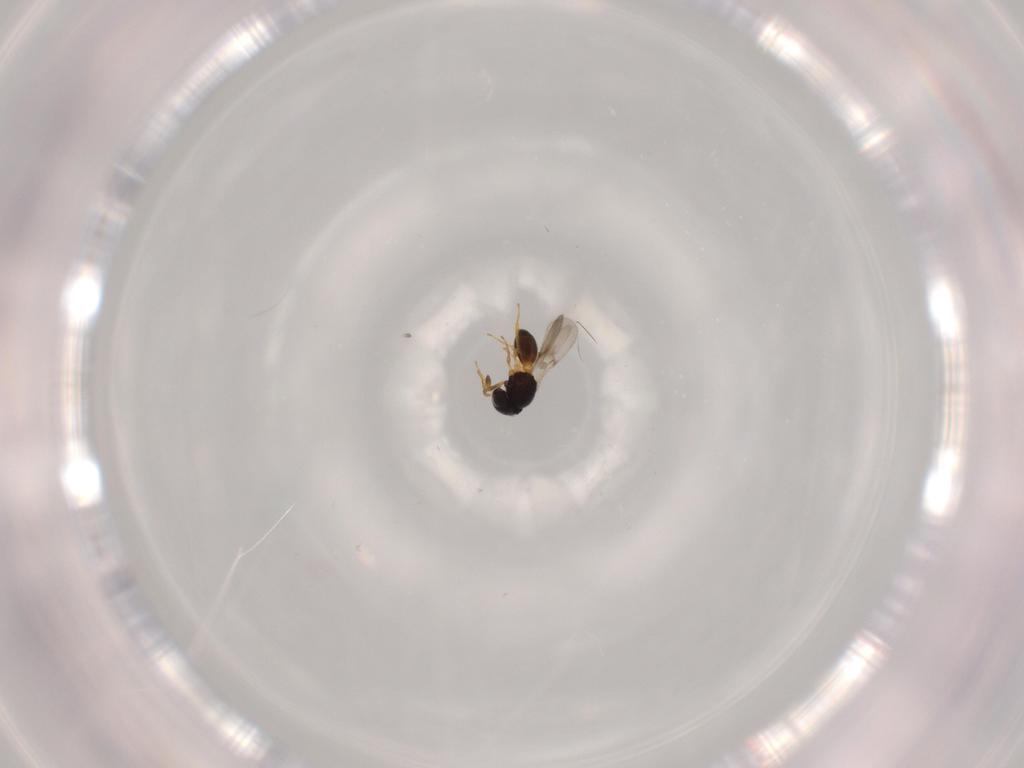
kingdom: Animalia
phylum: Arthropoda
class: Insecta
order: Hymenoptera
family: Scelionidae
